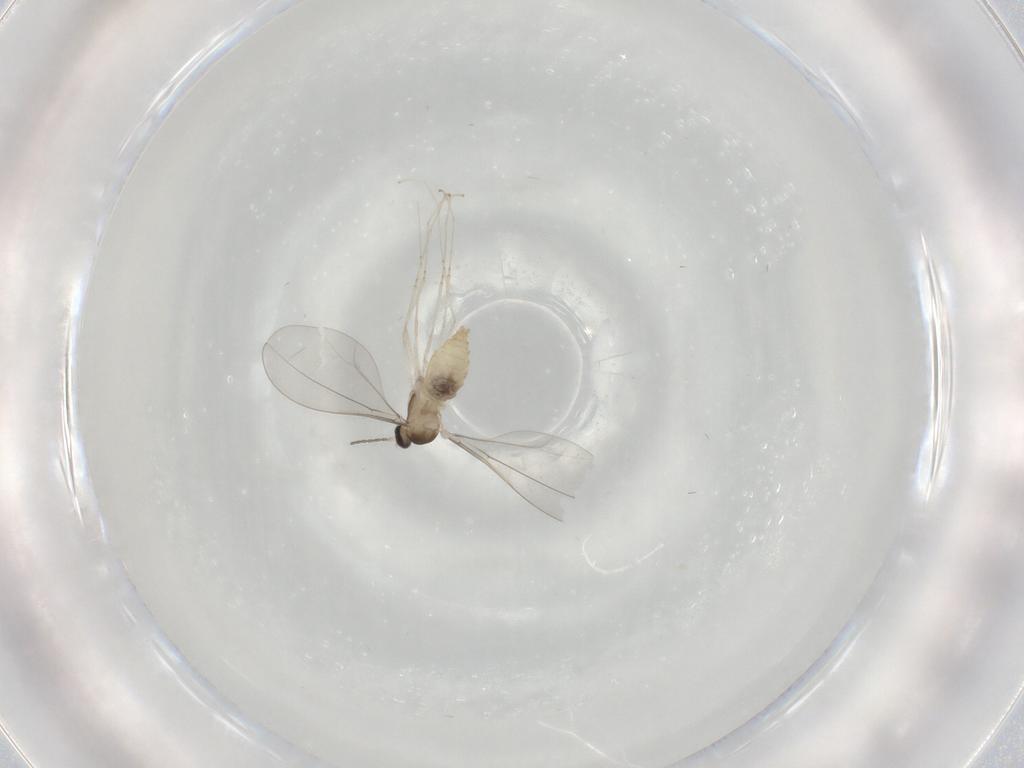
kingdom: Animalia
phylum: Arthropoda
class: Insecta
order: Diptera
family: Cecidomyiidae
